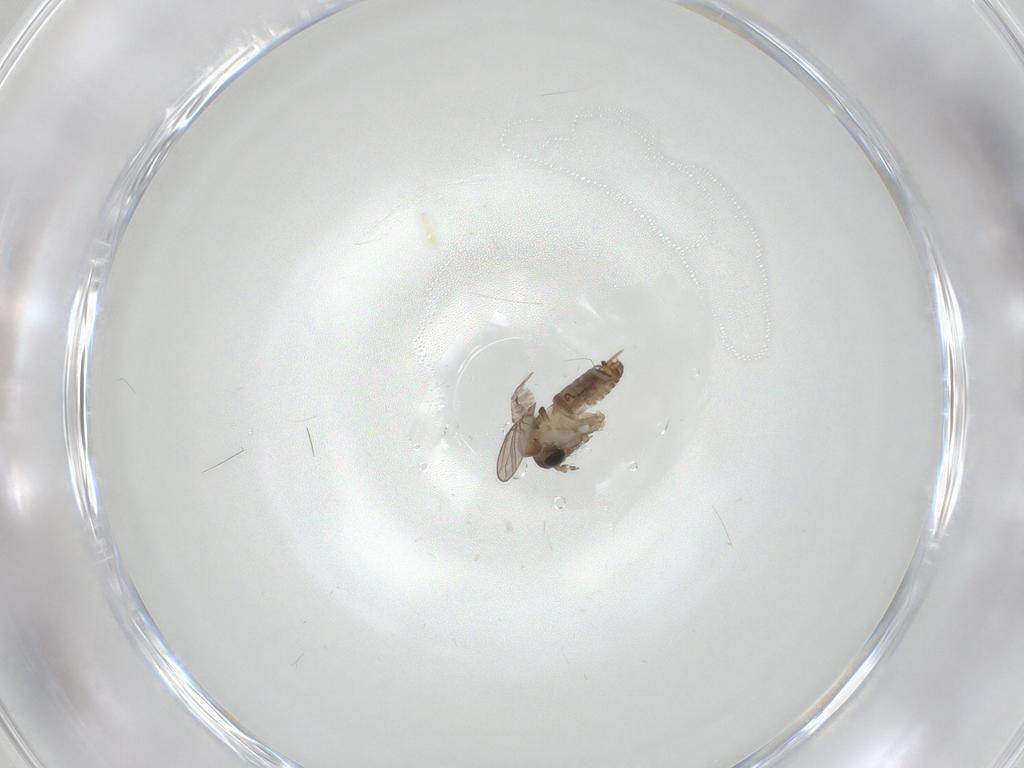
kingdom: Animalia
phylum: Arthropoda
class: Insecta
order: Diptera
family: Psychodidae
